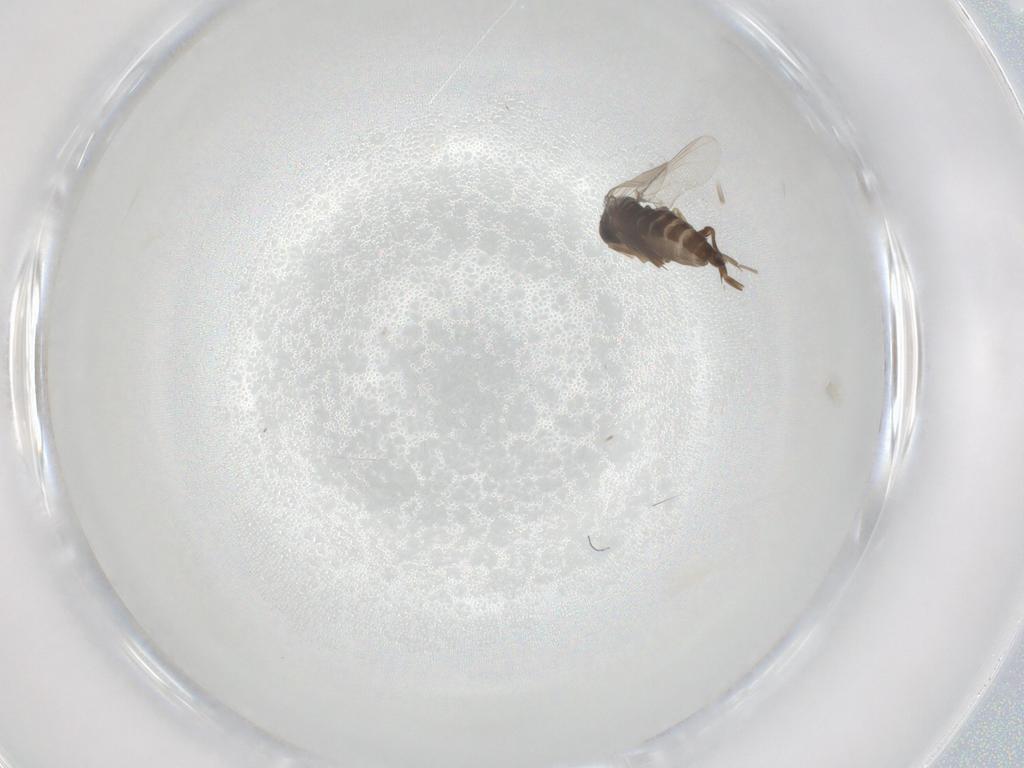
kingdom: Animalia
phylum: Arthropoda
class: Insecta
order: Diptera
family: Phoridae
